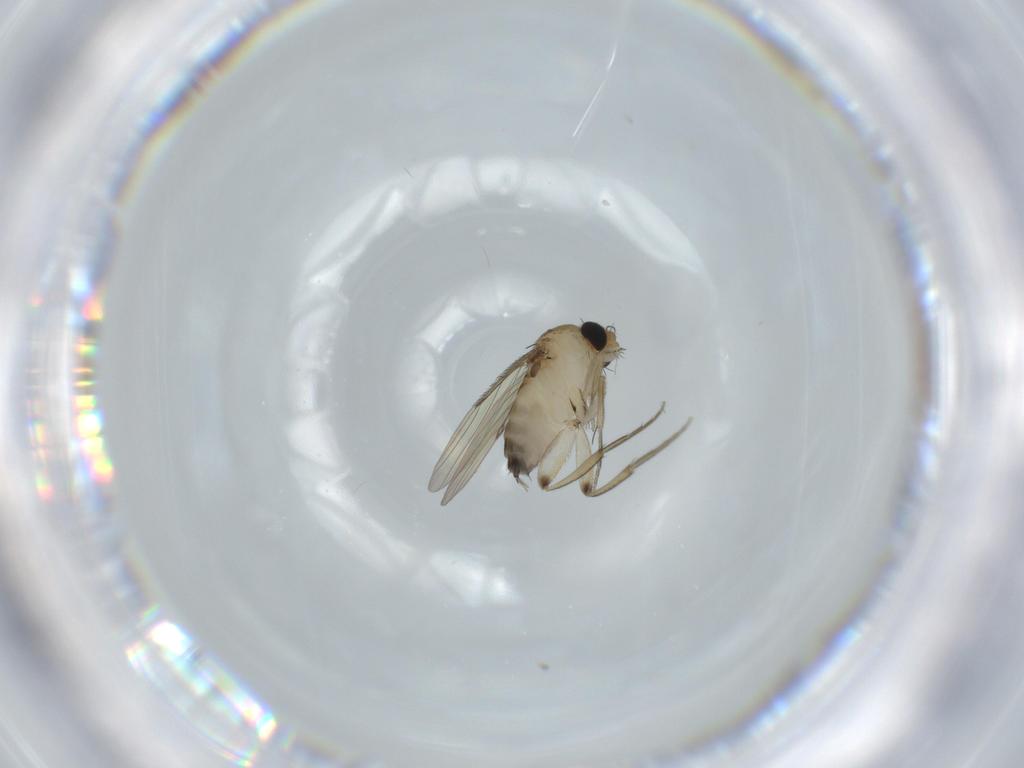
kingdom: Animalia
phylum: Arthropoda
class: Insecta
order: Diptera
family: Phoridae
